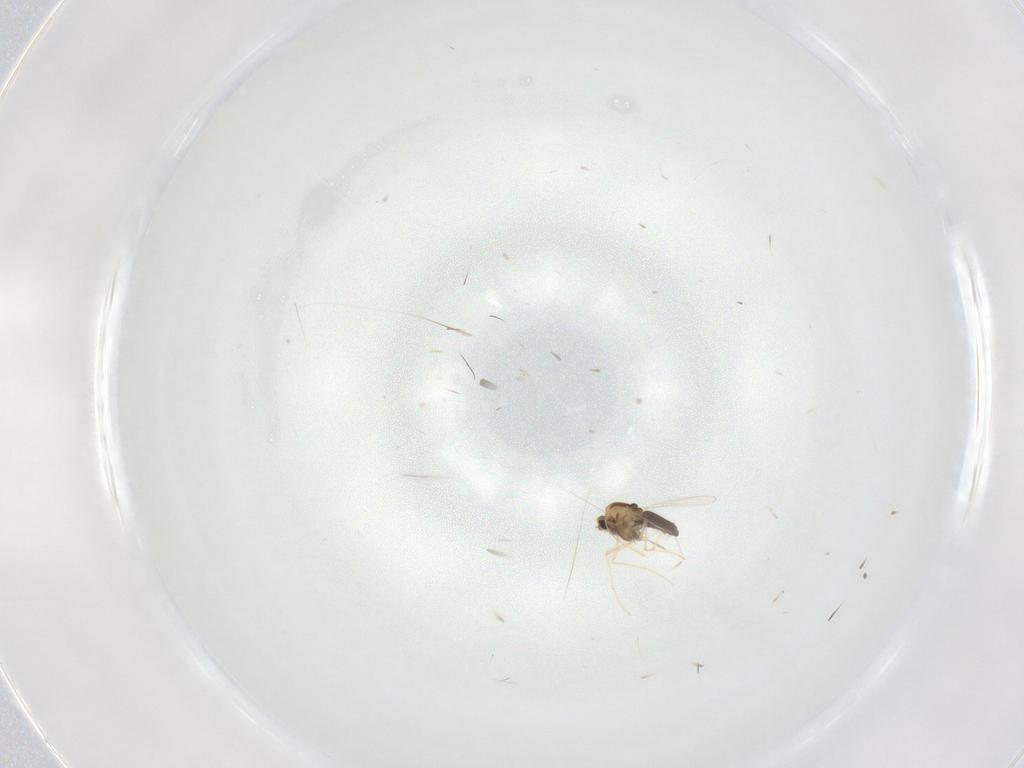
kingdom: Animalia
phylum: Arthropoda
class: Insecta
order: Diptera
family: Chironomidae
